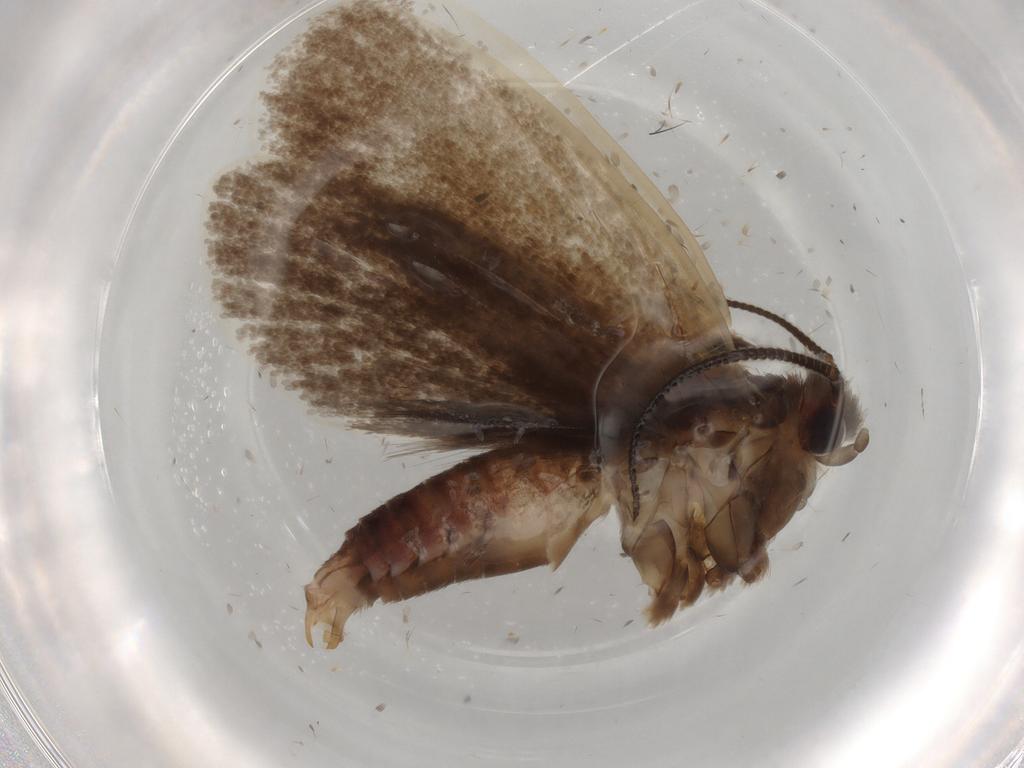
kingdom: Animalia
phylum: Arthropoda
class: Insecta
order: Lepidoptera
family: Tineidae
